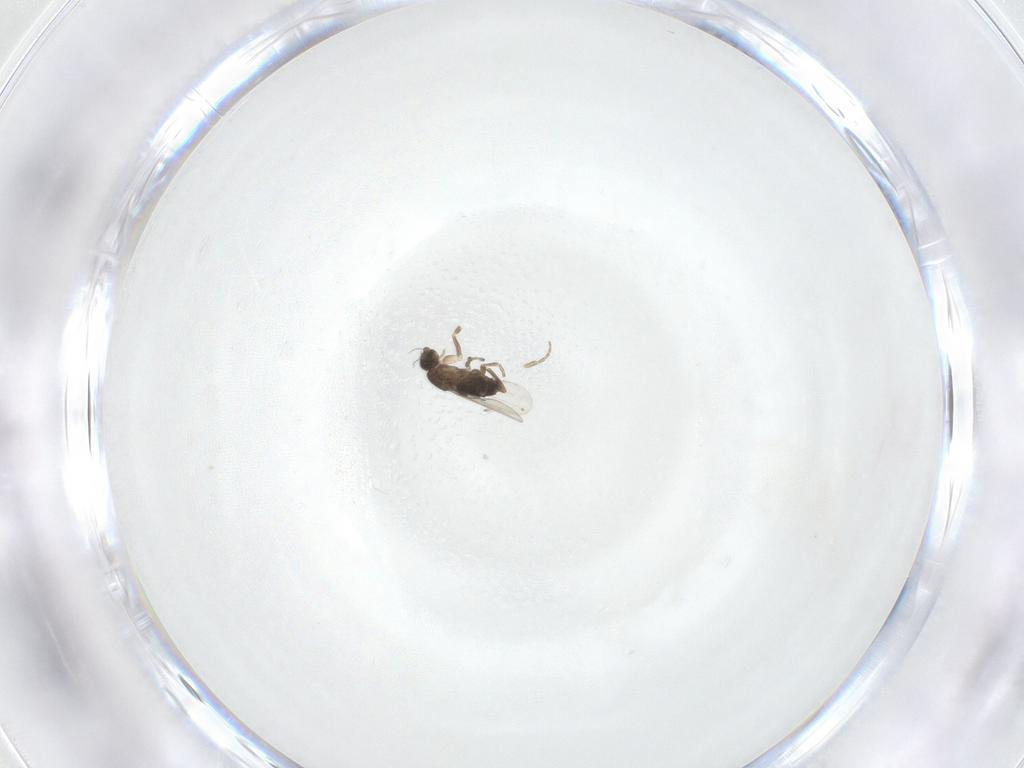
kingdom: Animalia
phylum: Arthropoda
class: Insecta
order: Diptera
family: Phoridae
